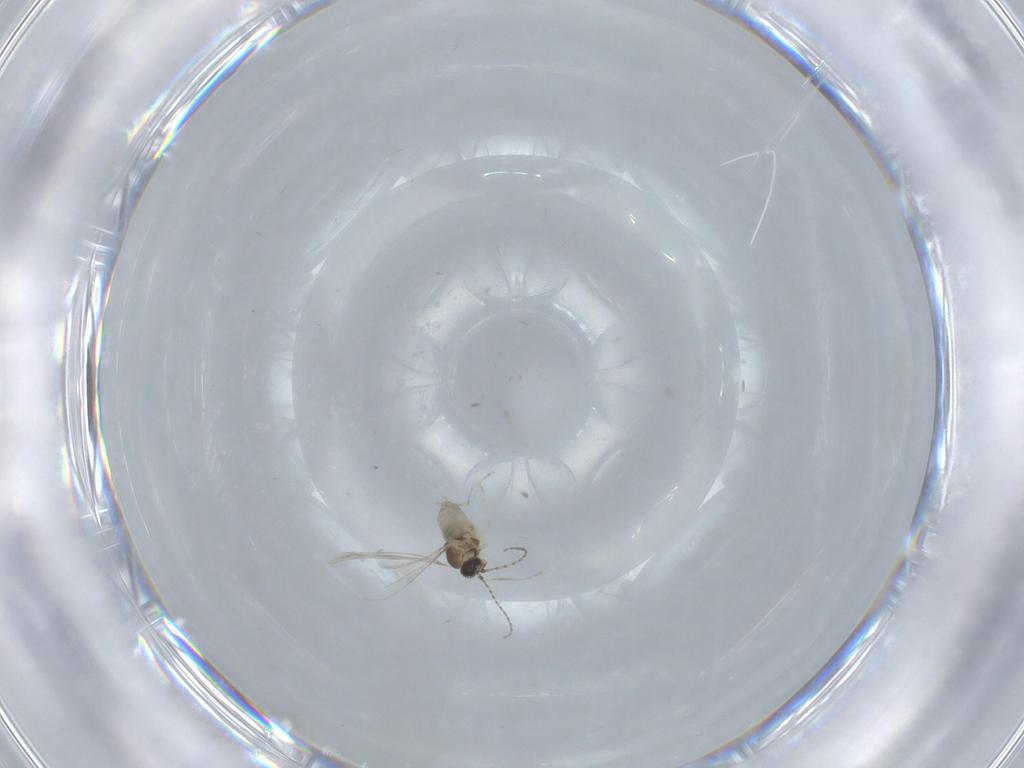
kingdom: Animalia
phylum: Arthropoda
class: Insecta
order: Diptera
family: Cecidomyiidae
